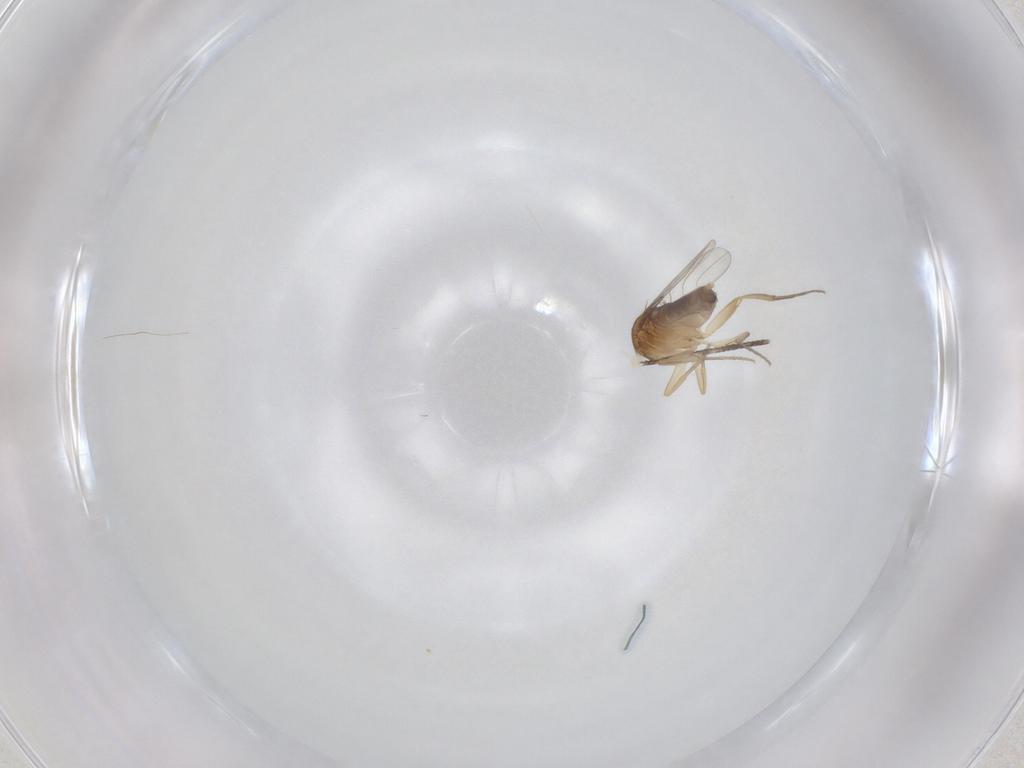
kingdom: Animalia
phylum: Arthropoda
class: Insecta
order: Diptera
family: Phoridae
